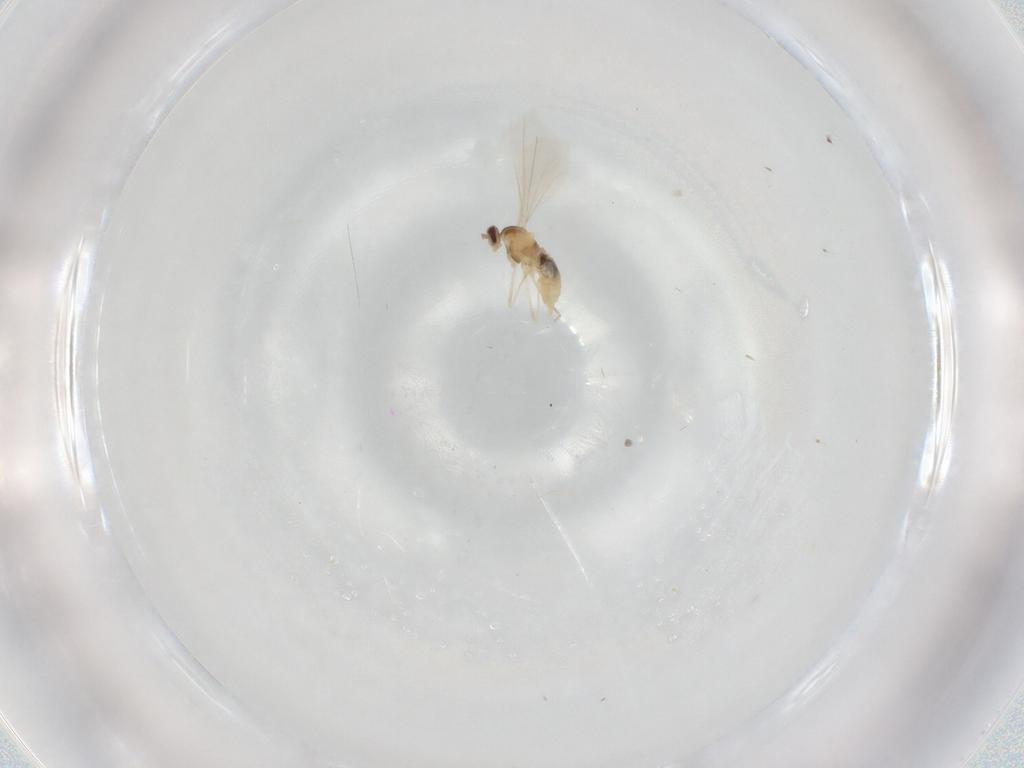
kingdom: Animalia
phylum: Arthropoda
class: Insecta
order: Diptera
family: Cecidomyiidae
